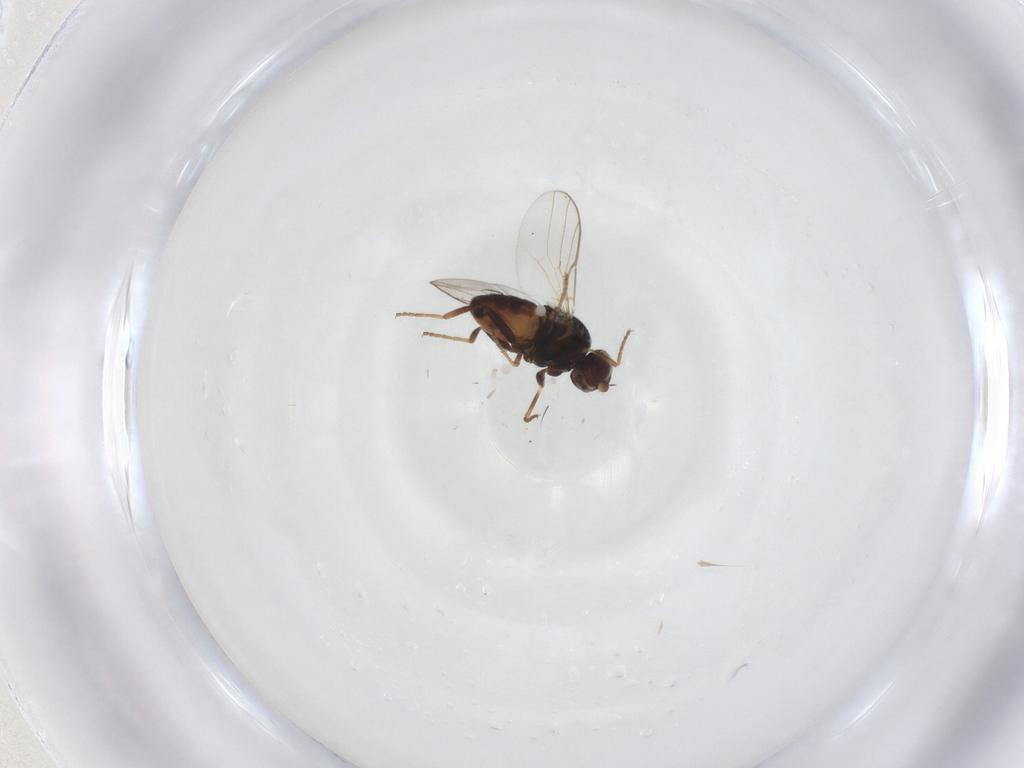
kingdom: Animalia
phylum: Arthropoda
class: Insecta
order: Diptera
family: Chloropidae
